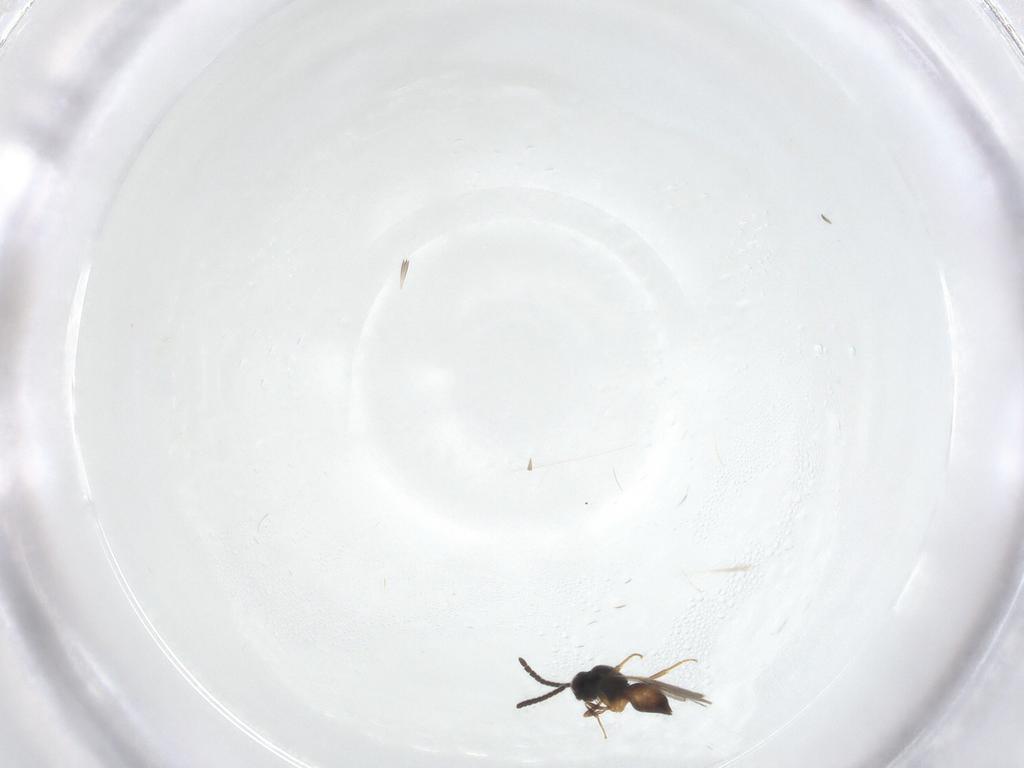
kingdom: Animalia
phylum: Arthropoda
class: Insecta
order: Hymenoptera
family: Ceraphronidae
